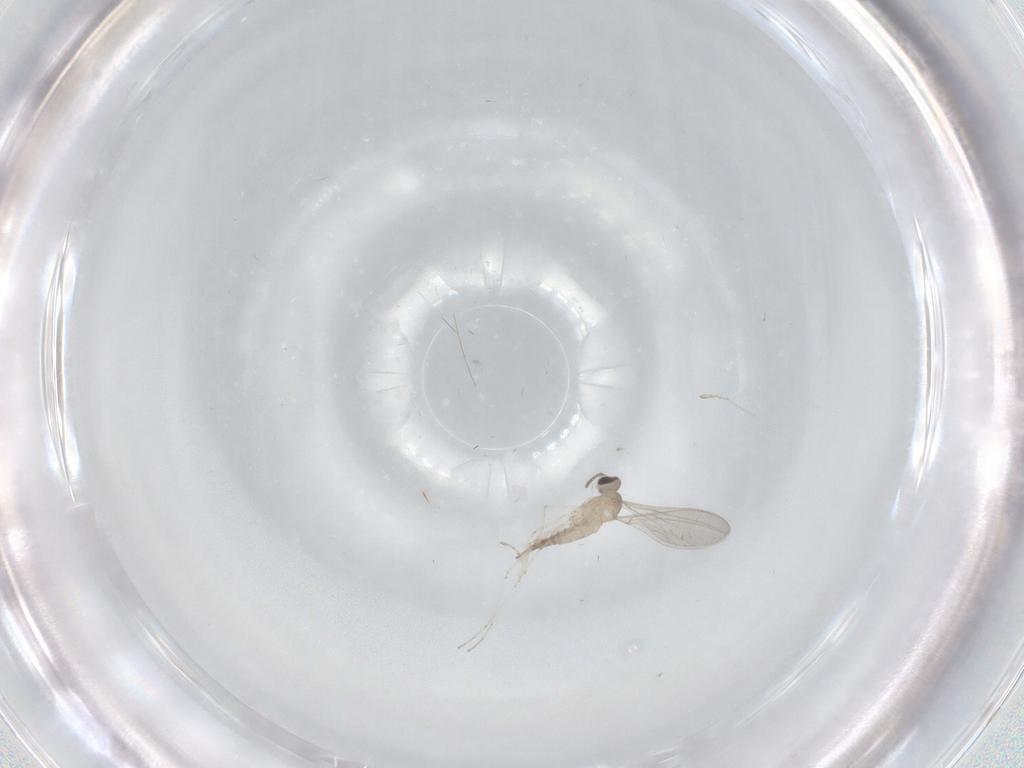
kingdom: Animalia
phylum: Arthropoda
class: Insecta
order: Diptera
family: Cecidomyiidae
